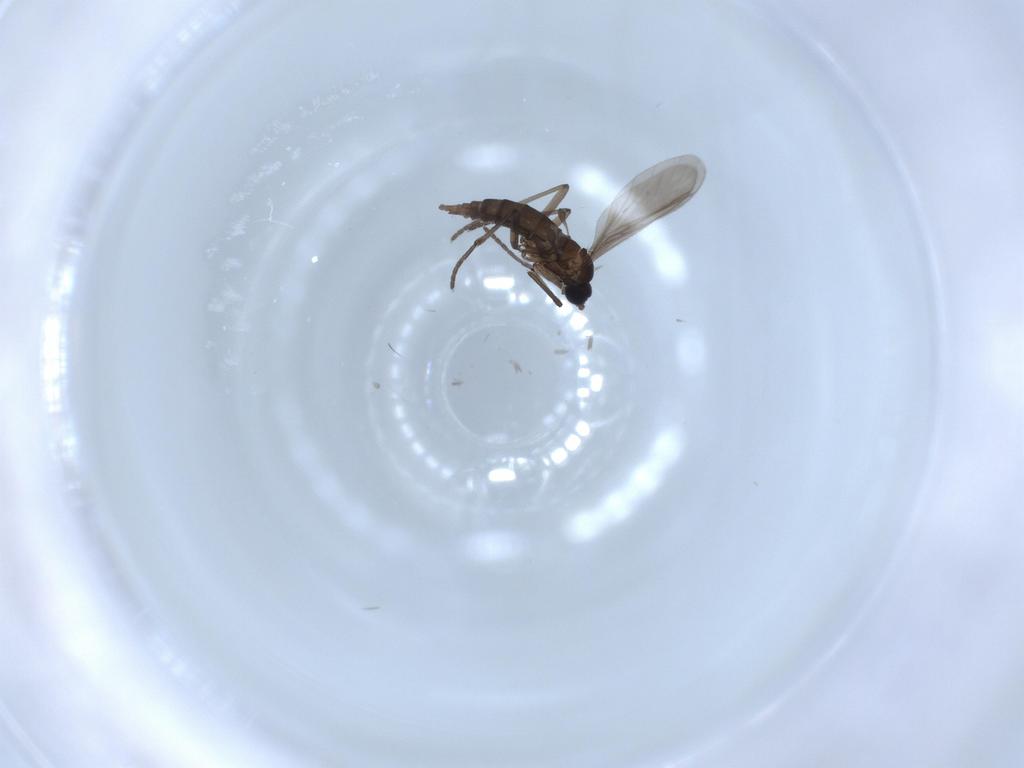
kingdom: Animalia
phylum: Arthropoda
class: Insecta
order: Diptera
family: Sciaridae
